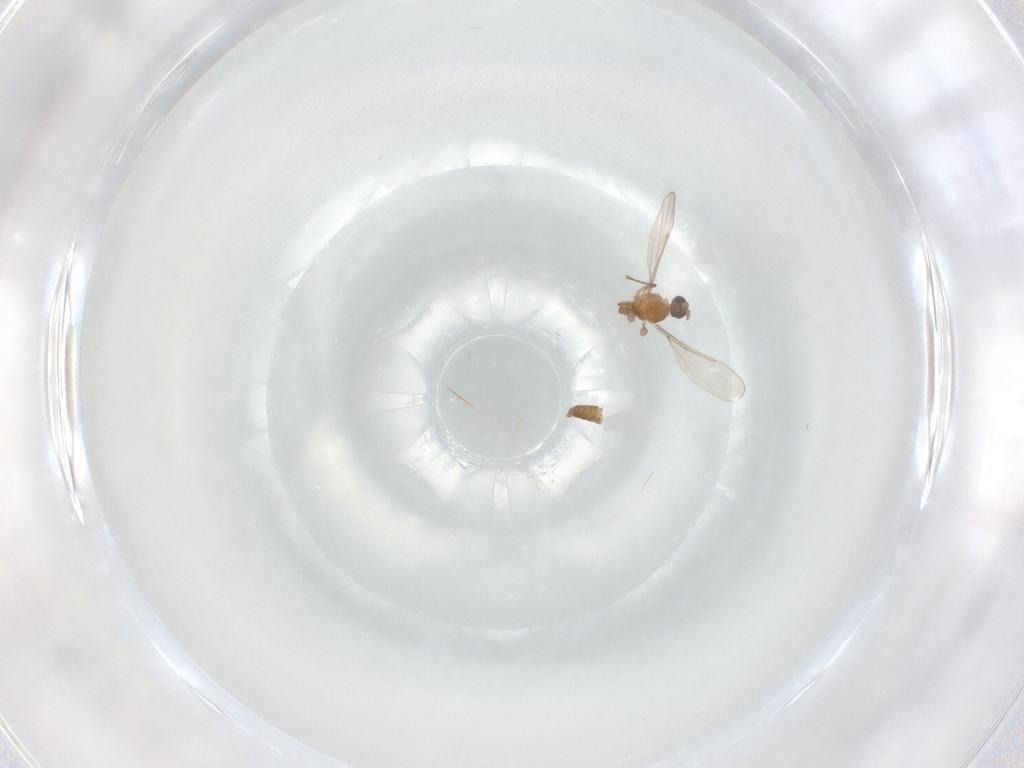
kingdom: Animalia
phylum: Arthropoda
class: Insecta
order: Diptera
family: Cecidomyiidae
